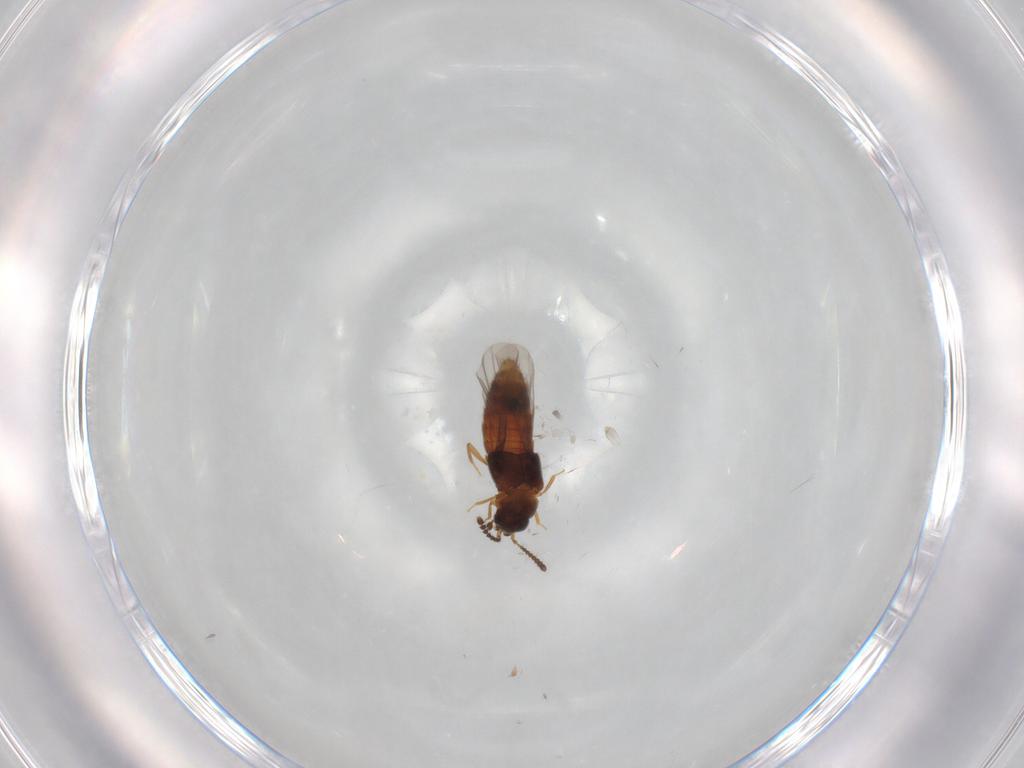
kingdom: Animalia
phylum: Arthropoda
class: Insecta
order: Coleoptera
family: Staphylinidae
